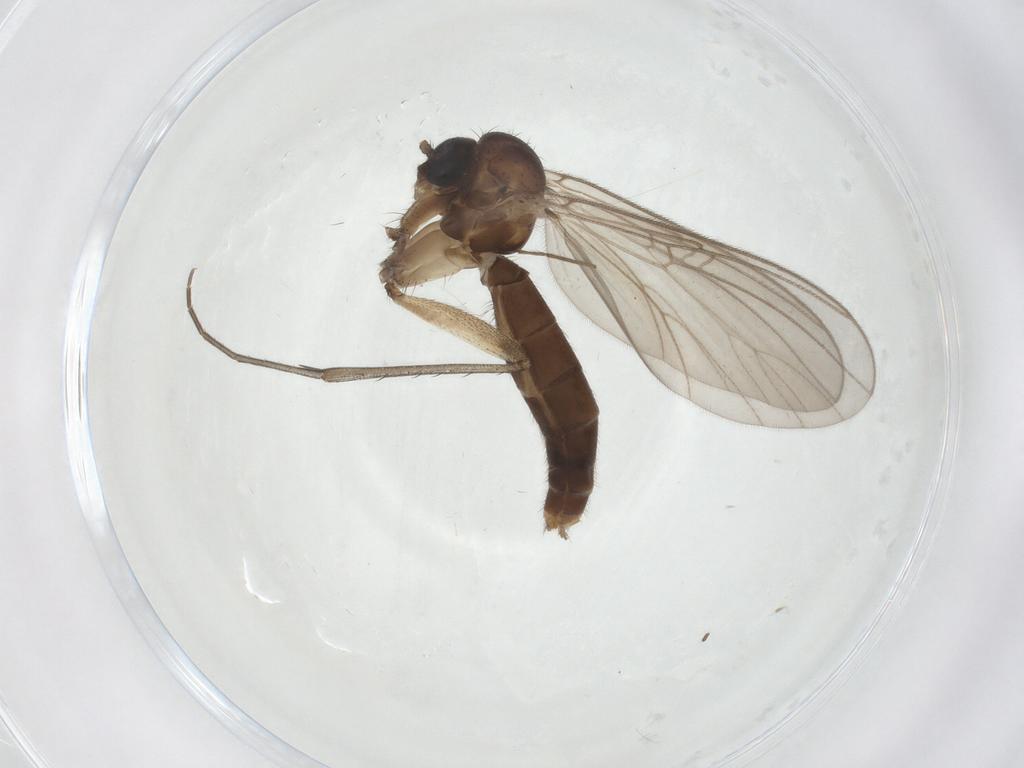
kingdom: Animalia
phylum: Arthropoda
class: Insecta
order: Diptera
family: Mycetophilidae
